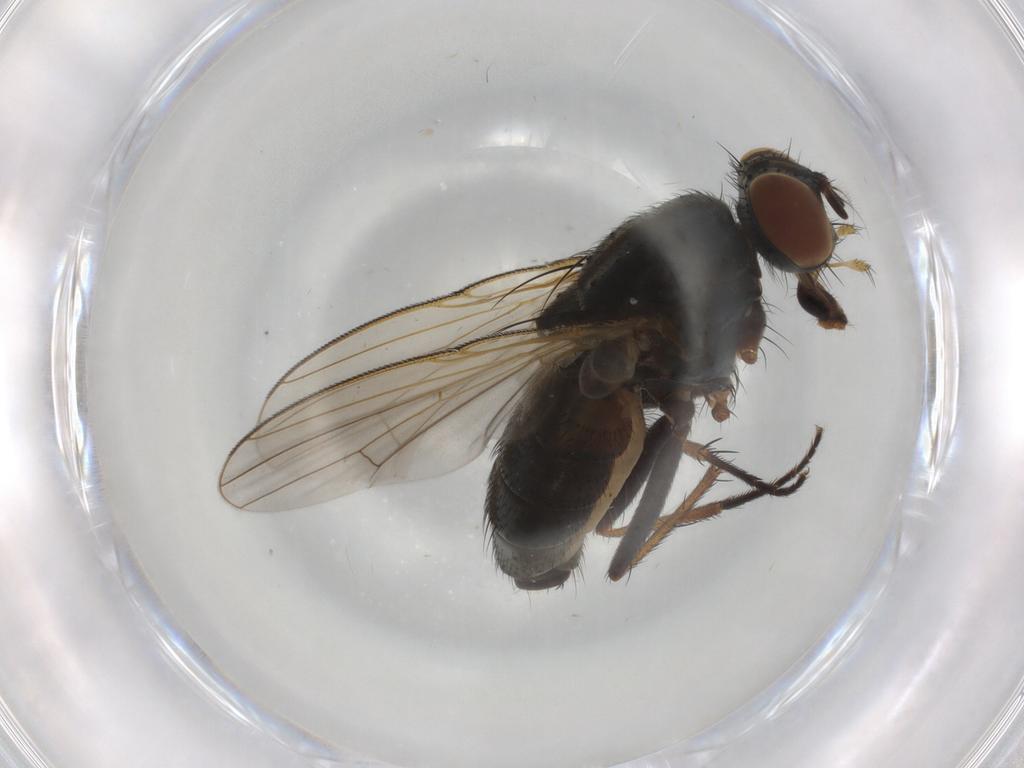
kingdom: Animalia
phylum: Arthropoda
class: Insecta
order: Diptera
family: Muscidae
